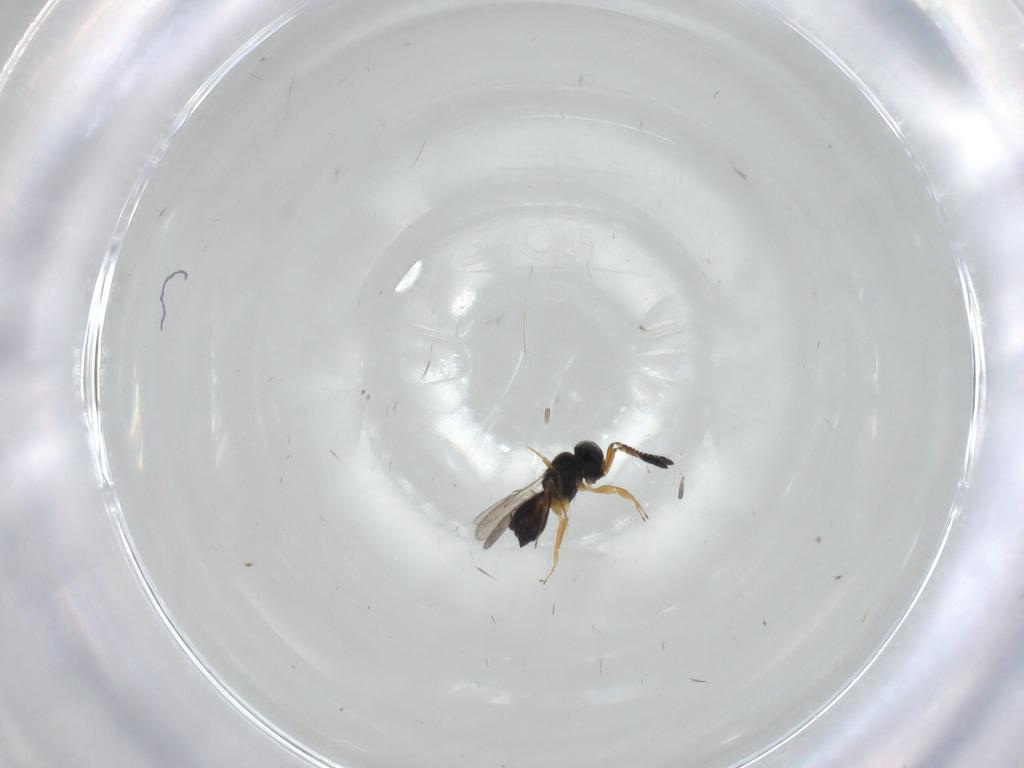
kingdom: Animalia
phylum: Arthropoda
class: Insecta
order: Hymenoptera
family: Scelionidae
